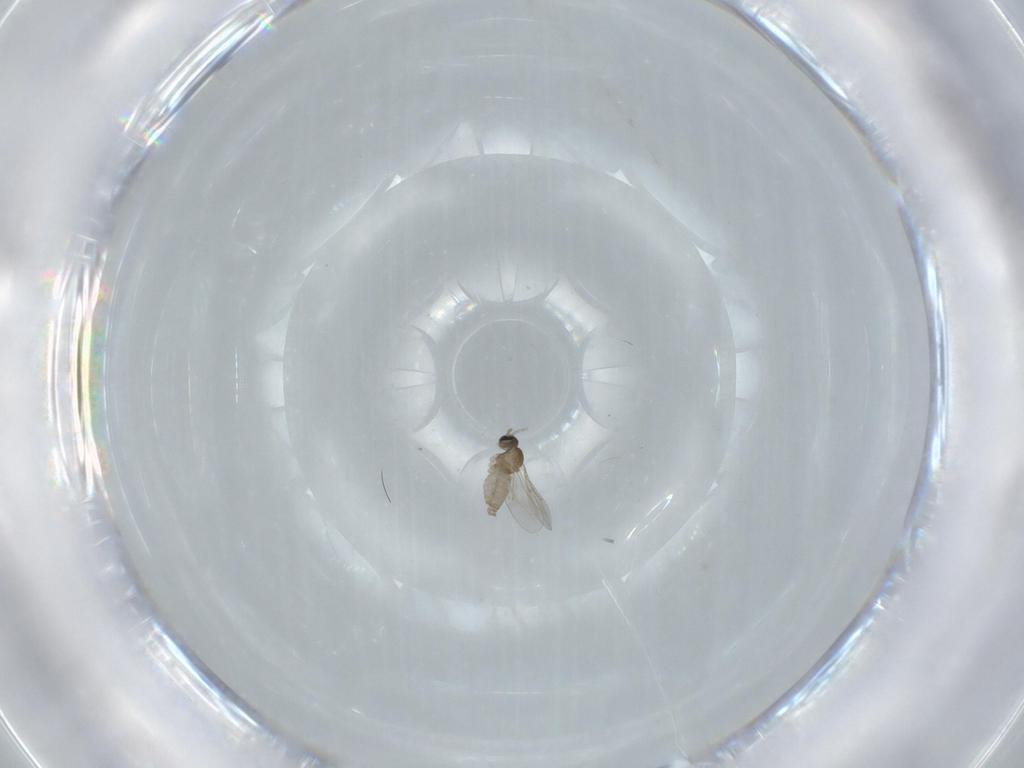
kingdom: Animalia
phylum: Arthropoda
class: Insecta
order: Diptera
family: Cecidomyiidae
